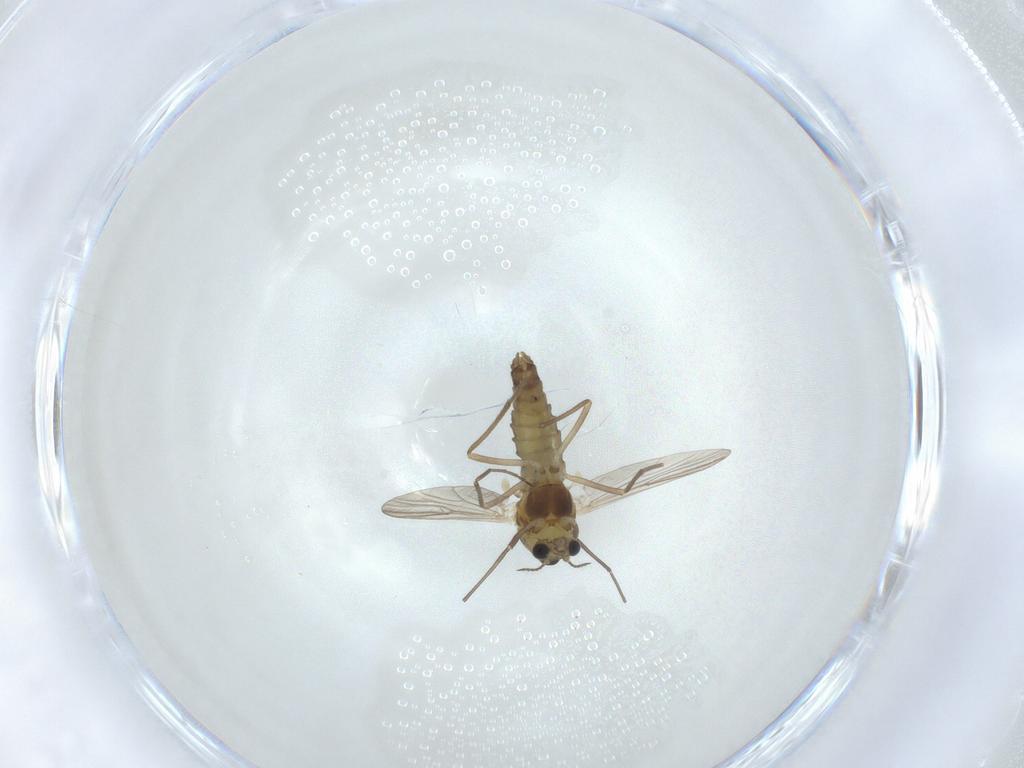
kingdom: Animalia
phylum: Arthropoda
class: Insecta
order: Diptera
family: Chironomidae
